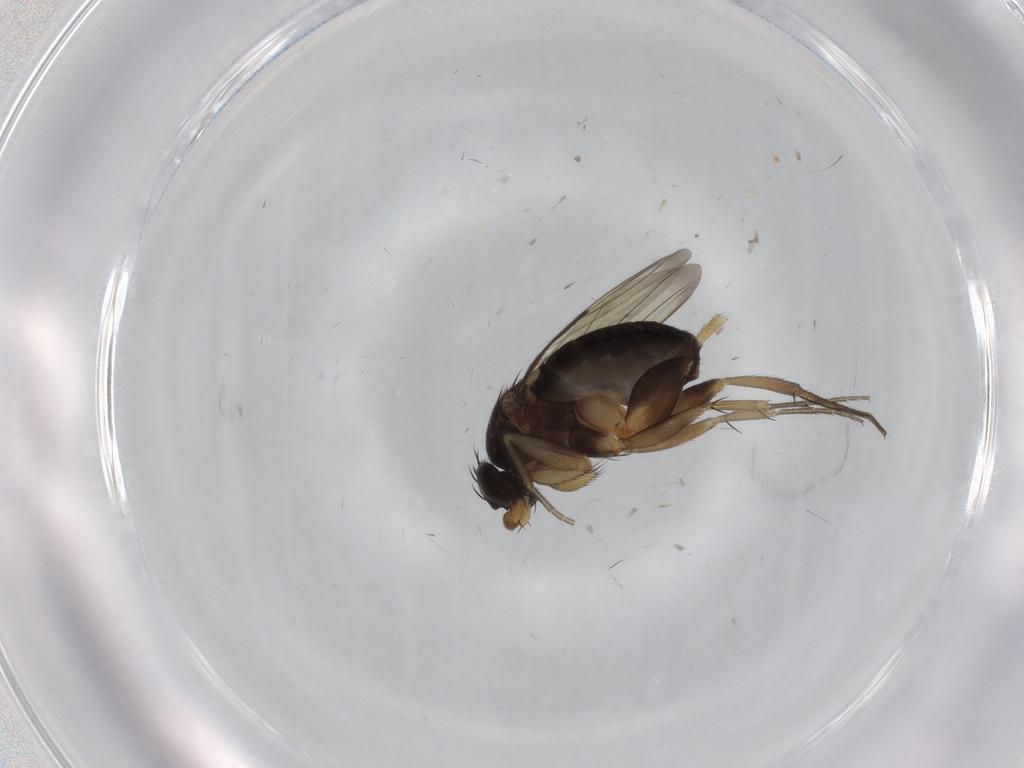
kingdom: Animalia
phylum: Arthropoda
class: Insecta
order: Diptera
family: Phoridae
